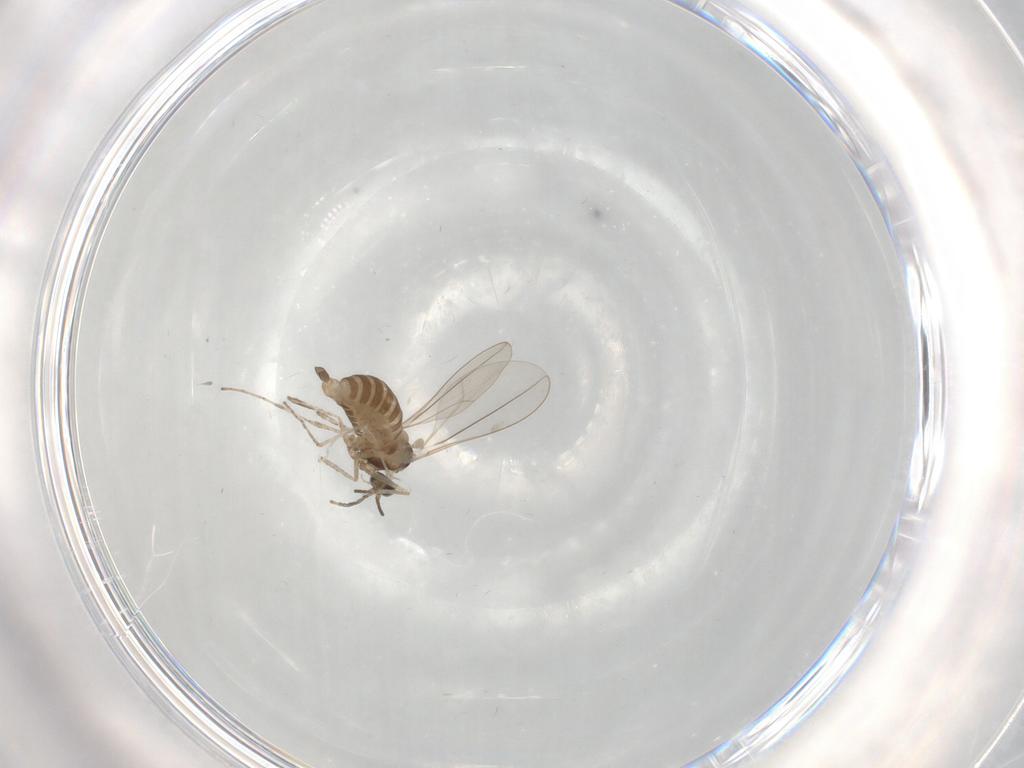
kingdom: Animalia
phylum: Arthropoda
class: Insecta
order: Diptera
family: Cecidomyiidae
